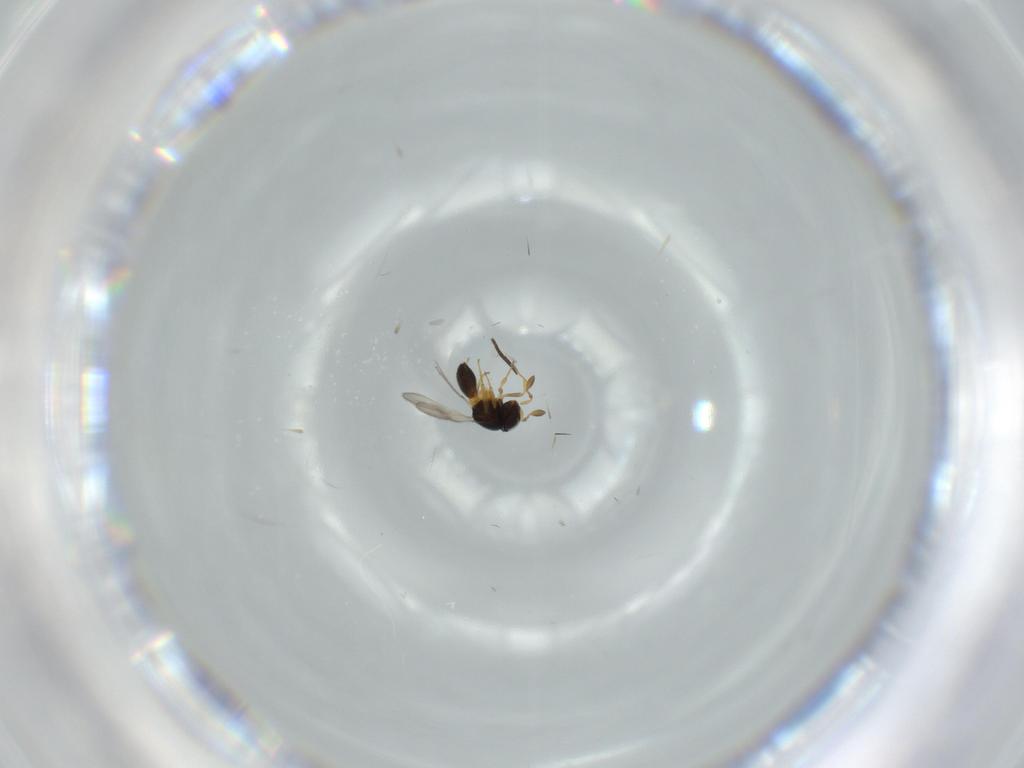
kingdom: Animalia
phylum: Arthropoda
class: Insecta
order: Hymenoptera
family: Scelionidae
